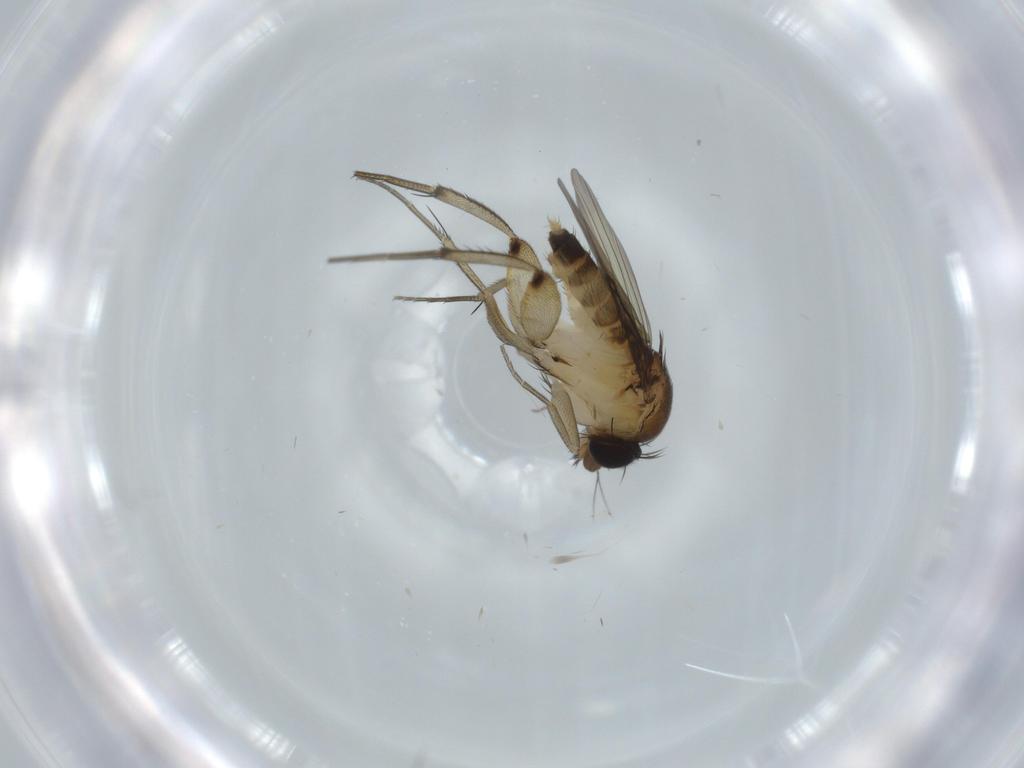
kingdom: Animalia
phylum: Arthropoda
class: Insecta
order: Diptera
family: Phoridae
